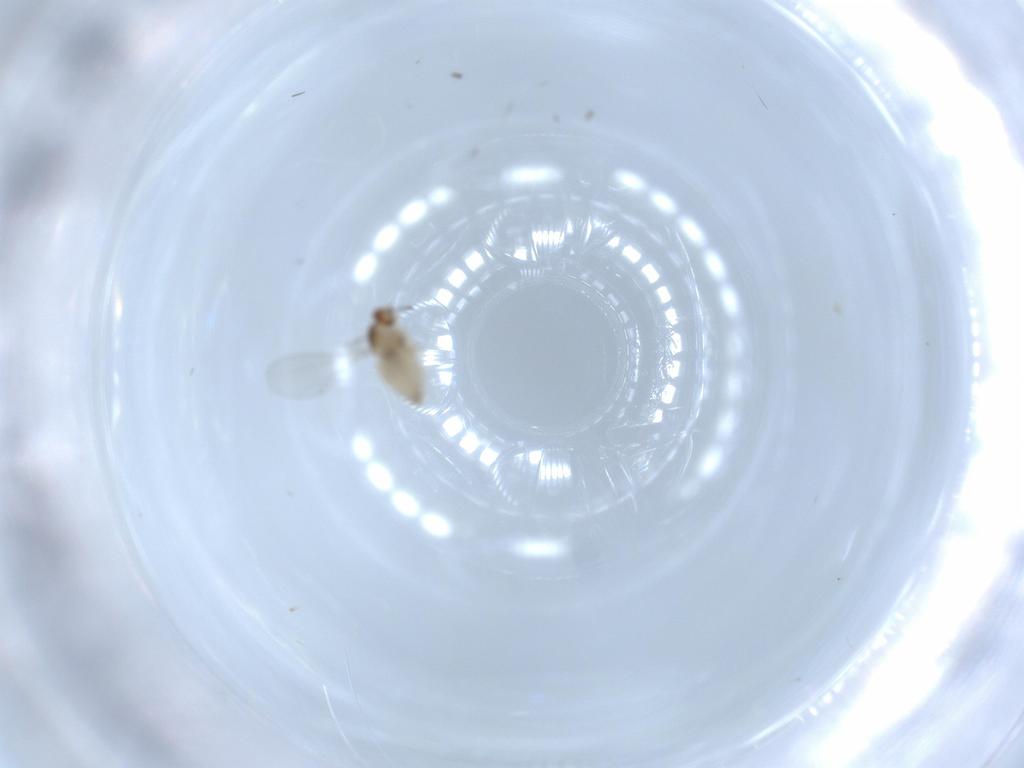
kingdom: Animalia
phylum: Arthropoda
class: Insecta
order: Diptera
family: Cecidomyiidae
